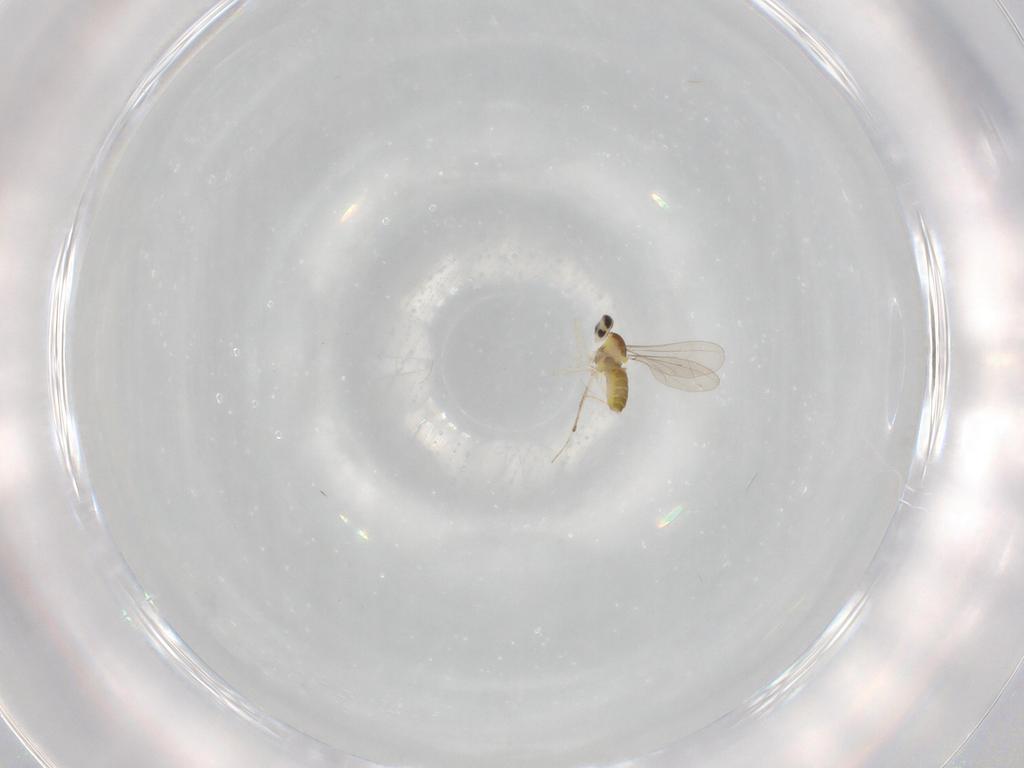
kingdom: Animalia
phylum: Arthropoda
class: Insecta
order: Diptera
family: Cecidomyiidae
